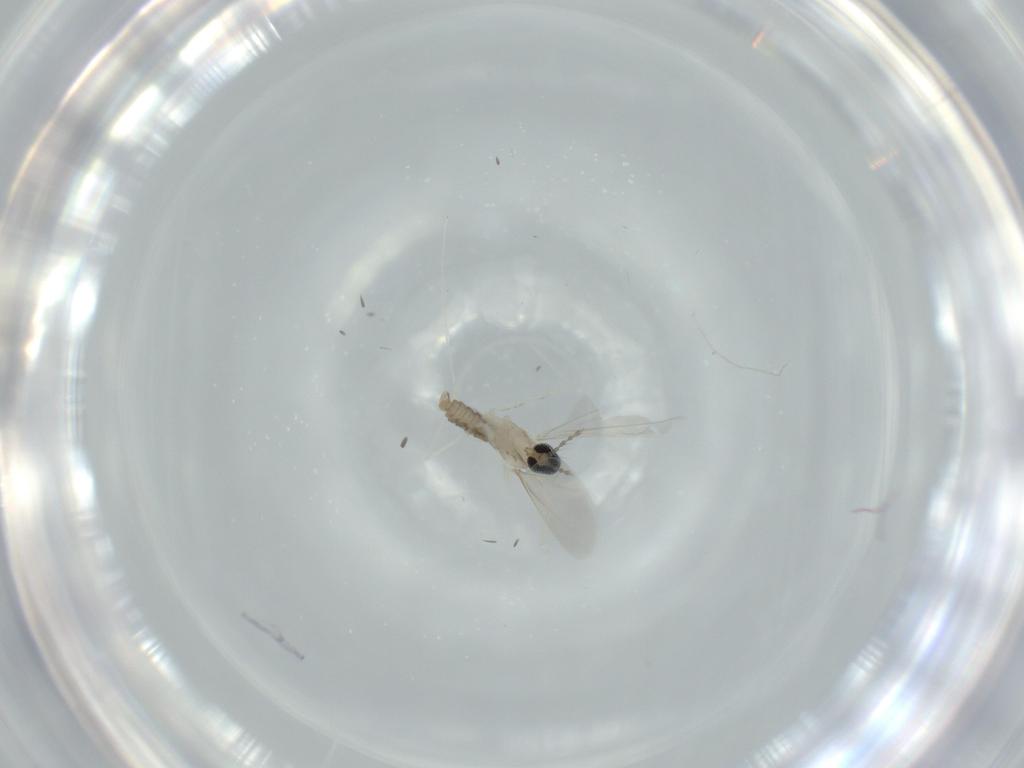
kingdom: Animalia
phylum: Arthropoda
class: Insecta
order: Diptera
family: Cecidomyiidae
